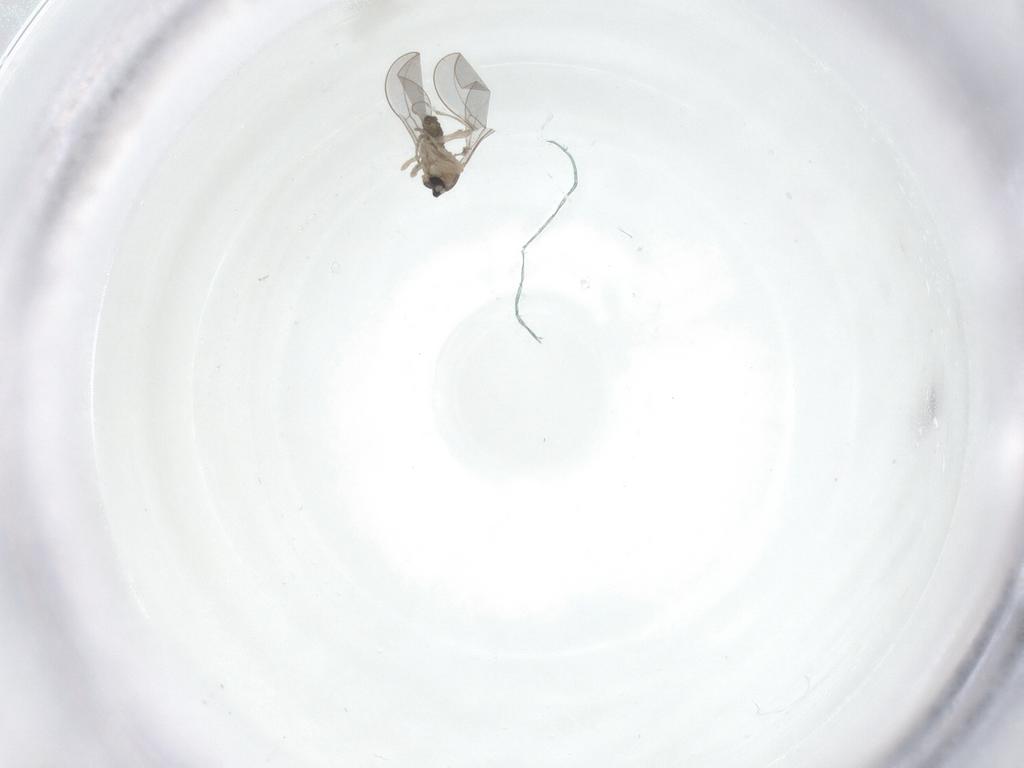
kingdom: Animalia
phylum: Arthropoda
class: Insecta
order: Diptera
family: Cecidomyiidae
